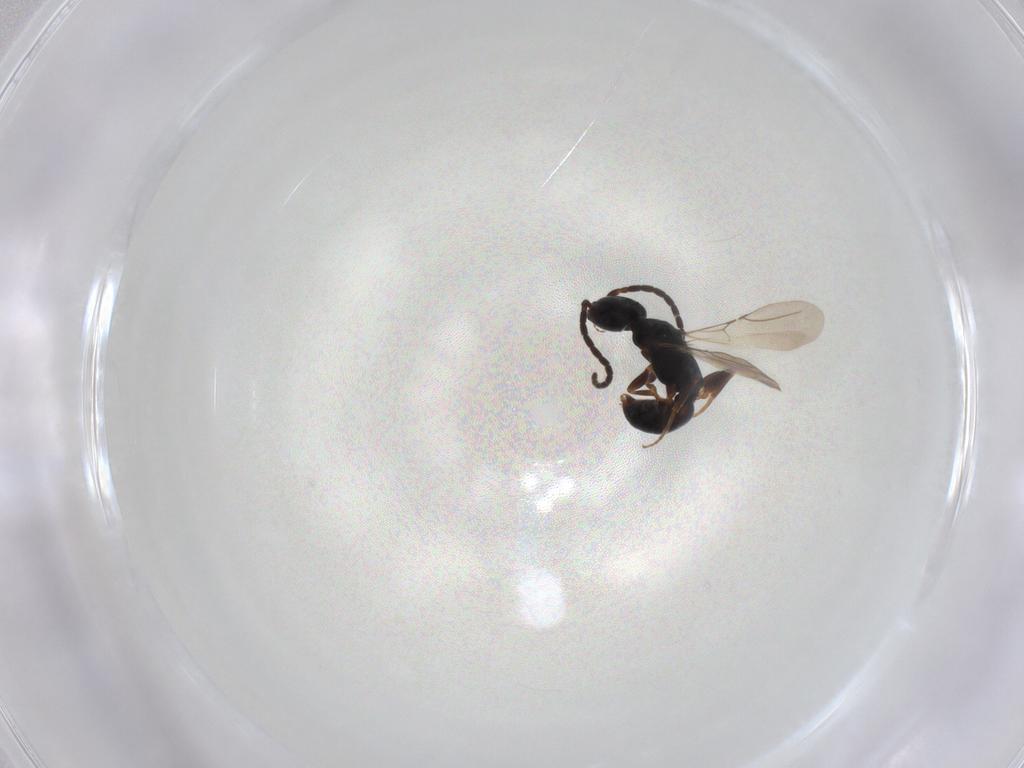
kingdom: Animalia
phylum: Arthropoda
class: Insecta
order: Hymenoptera
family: Bethylidae
